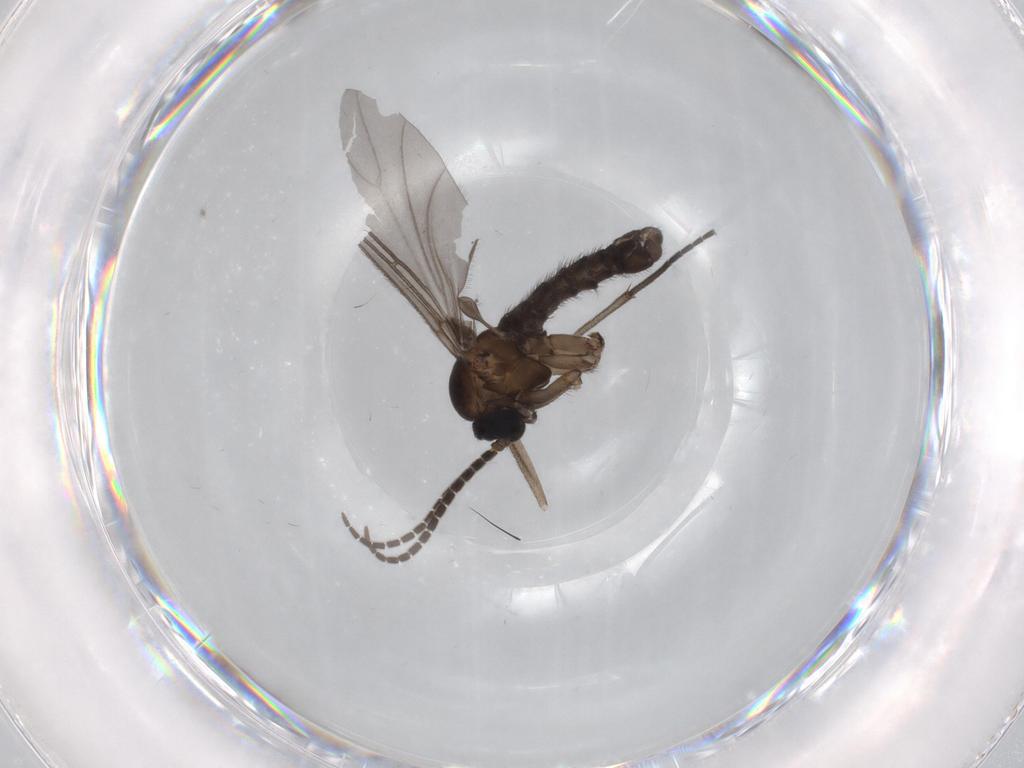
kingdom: Animalia
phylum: Arthropoda
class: Insecta
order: Diptera
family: Sciaridae
